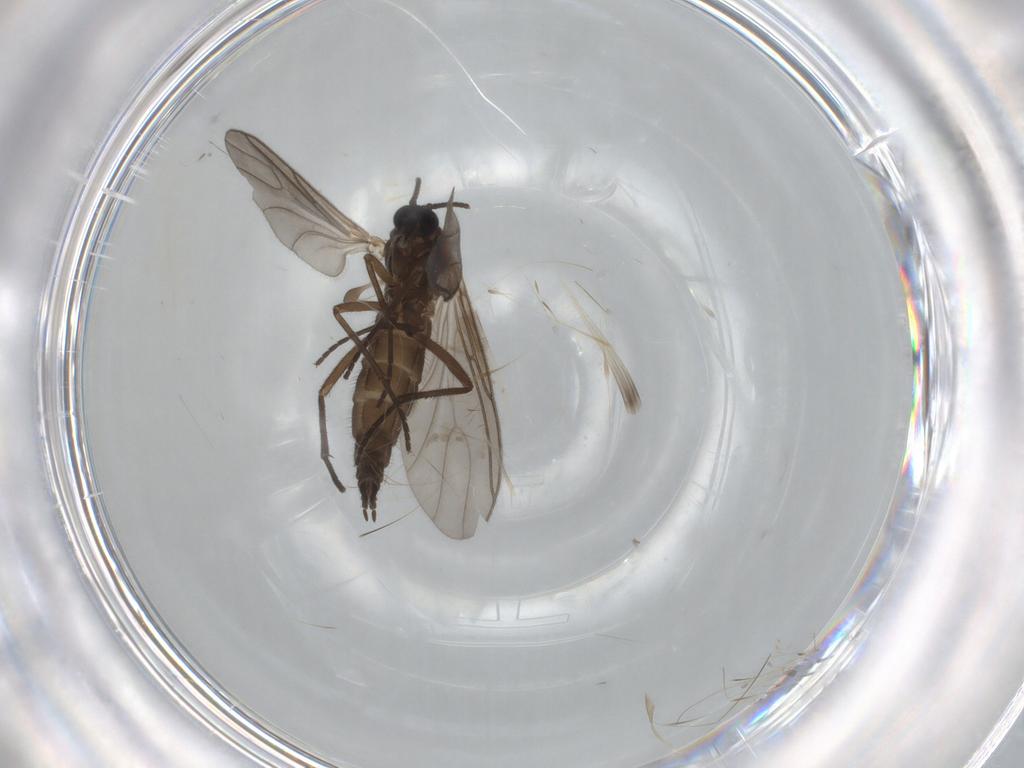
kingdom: Animalia
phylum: Arthropoda
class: Insecta
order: Diptera
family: Sciaridae
